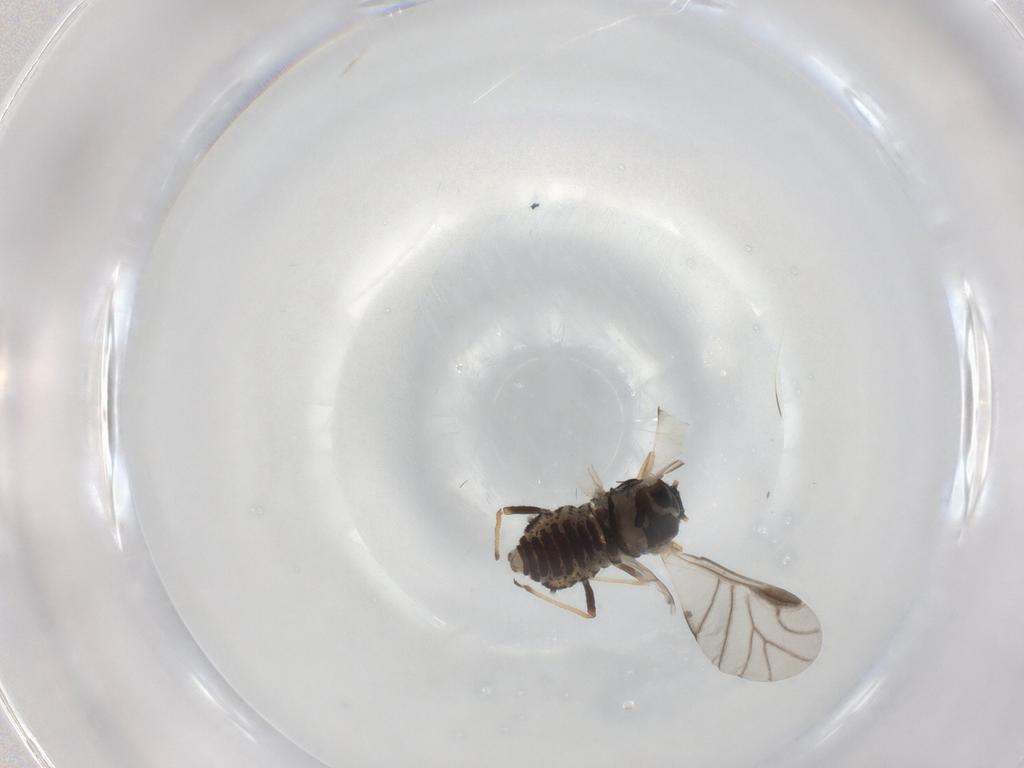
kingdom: Animalia
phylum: Arthropoda
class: Insecta
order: Hemiptera
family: Aphididae
